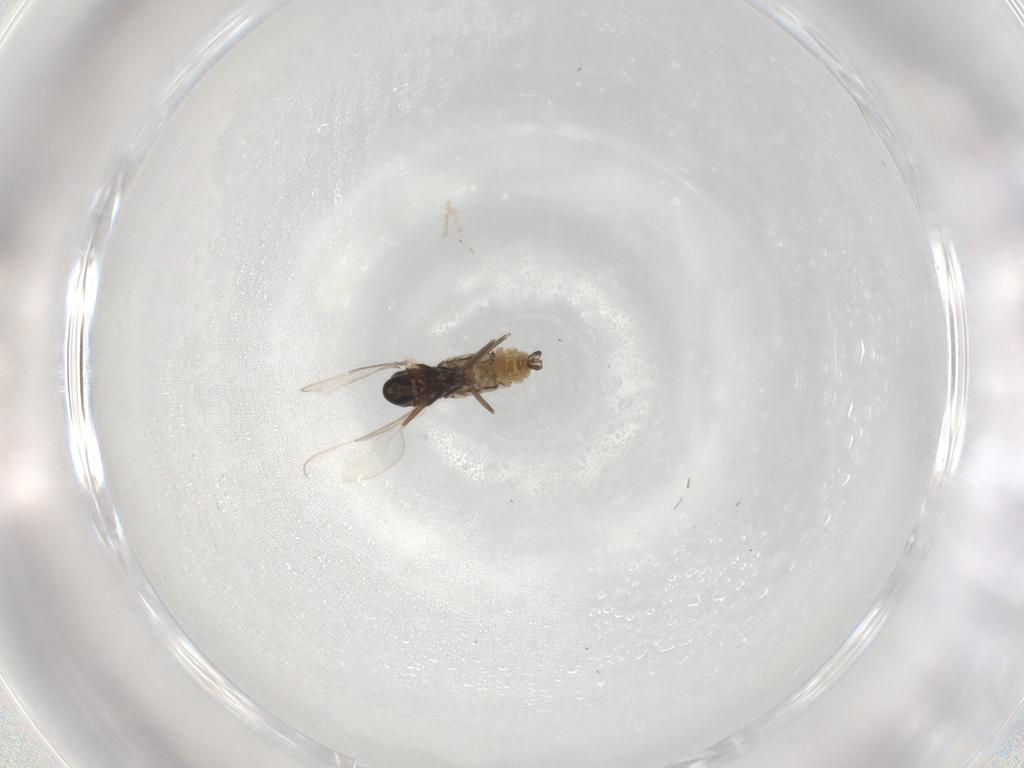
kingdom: Animalia
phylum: Arthropoda
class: Insecta
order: Diptera
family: Cecidomyiidae
